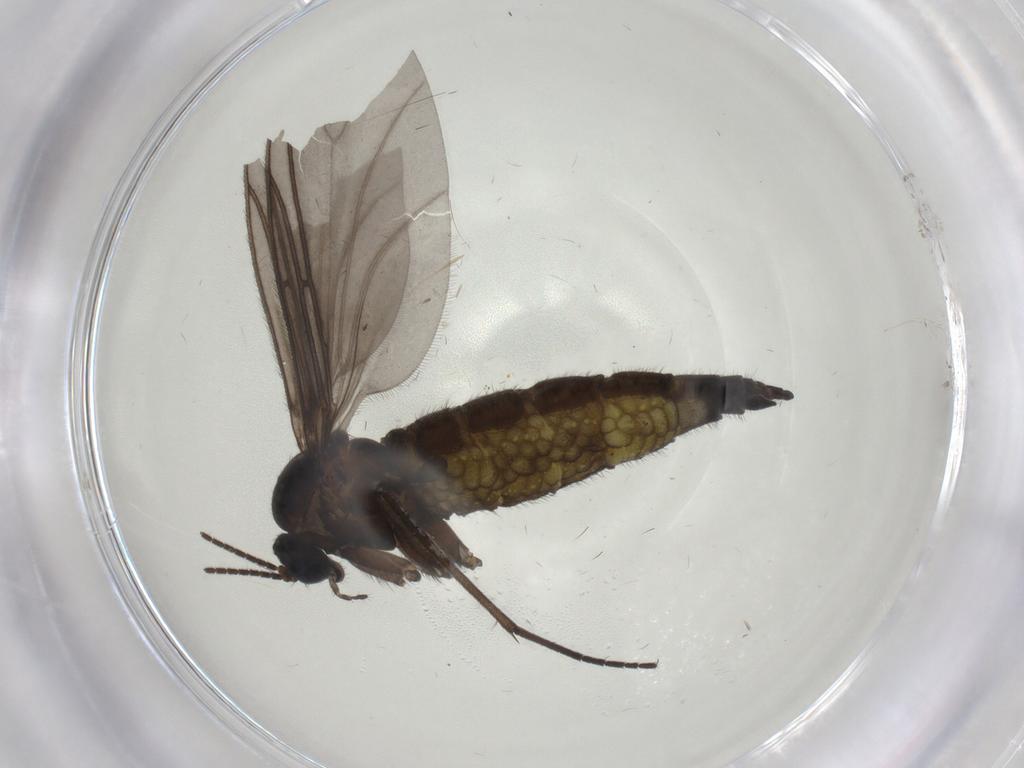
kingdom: Animalia
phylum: Arthropoda
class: Insecta
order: Diptera
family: Sciaridae
